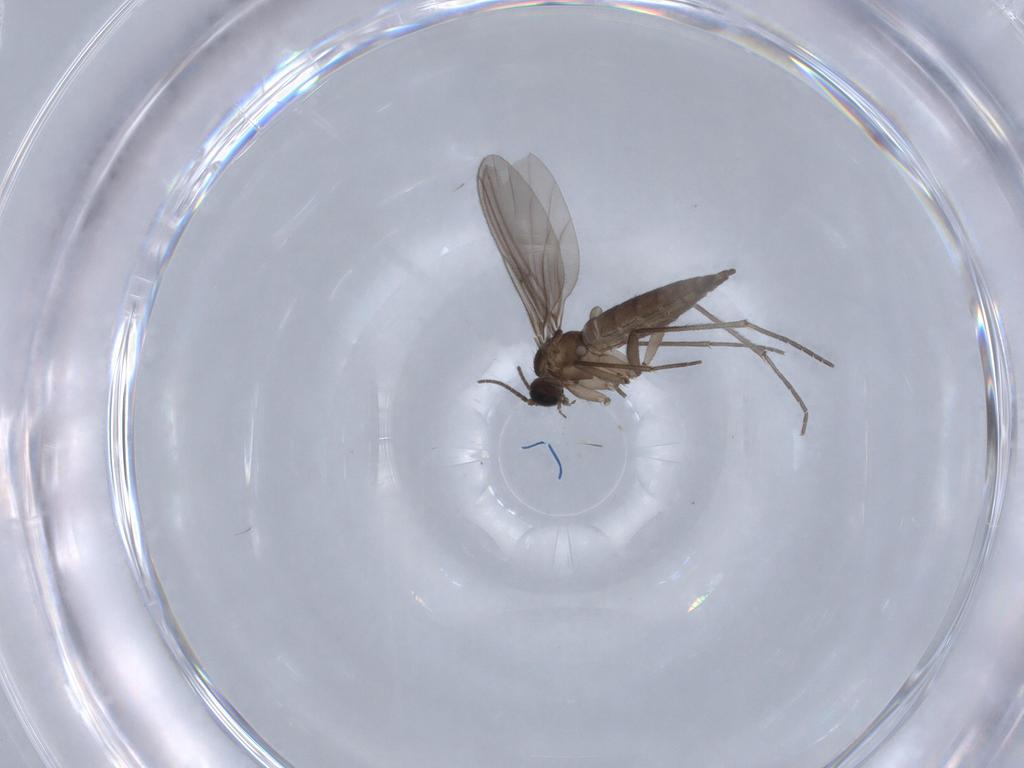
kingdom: Animalia
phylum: Arthropoda
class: Insecta
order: Diptera
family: Sciaridae
